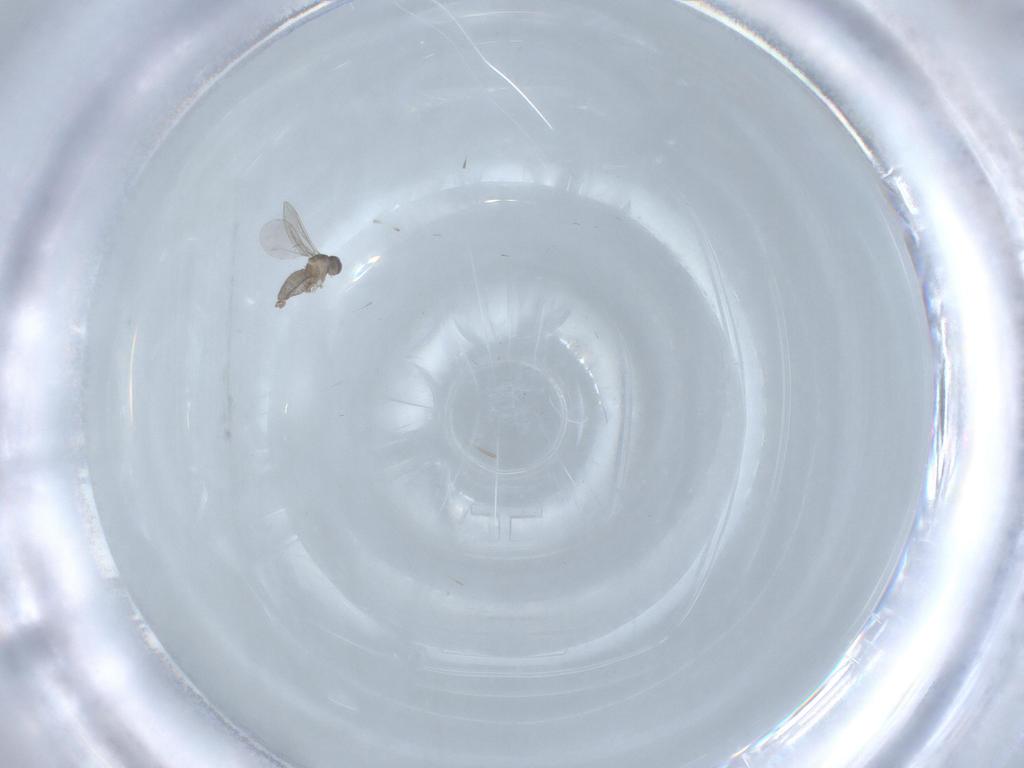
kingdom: Animalia
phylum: Arthropoda
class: Insecta
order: Diptera
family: Cecidomyiidae
